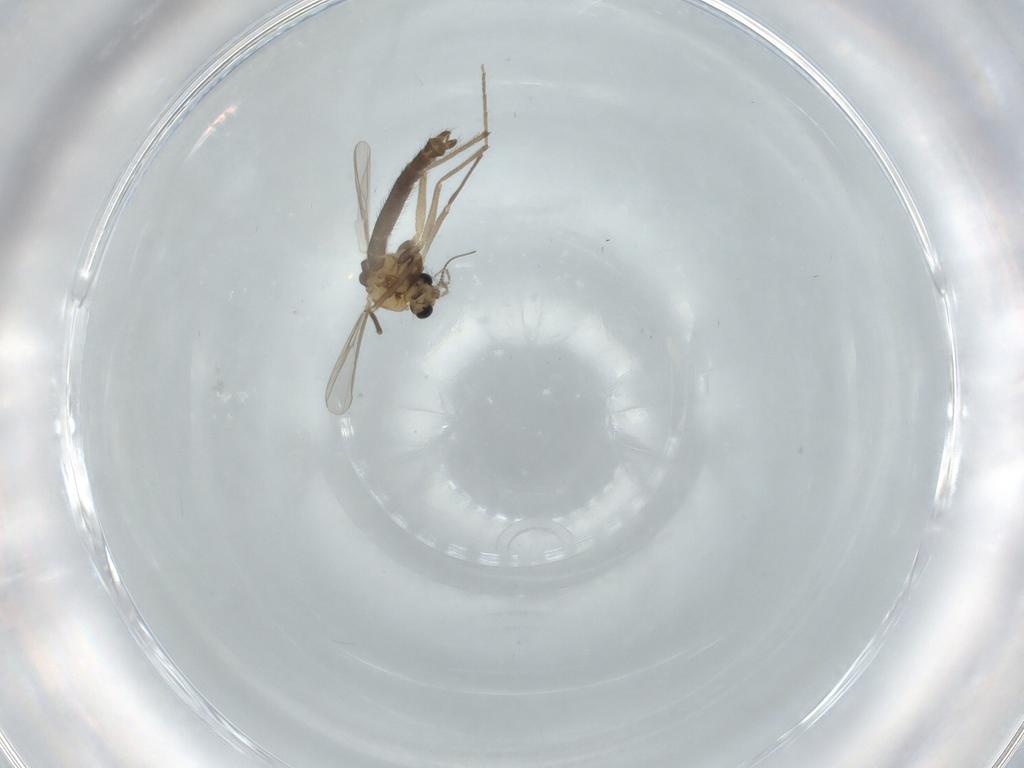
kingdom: Animalia
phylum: Arthropoda
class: Insecta
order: Diptera
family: Chironomidae
